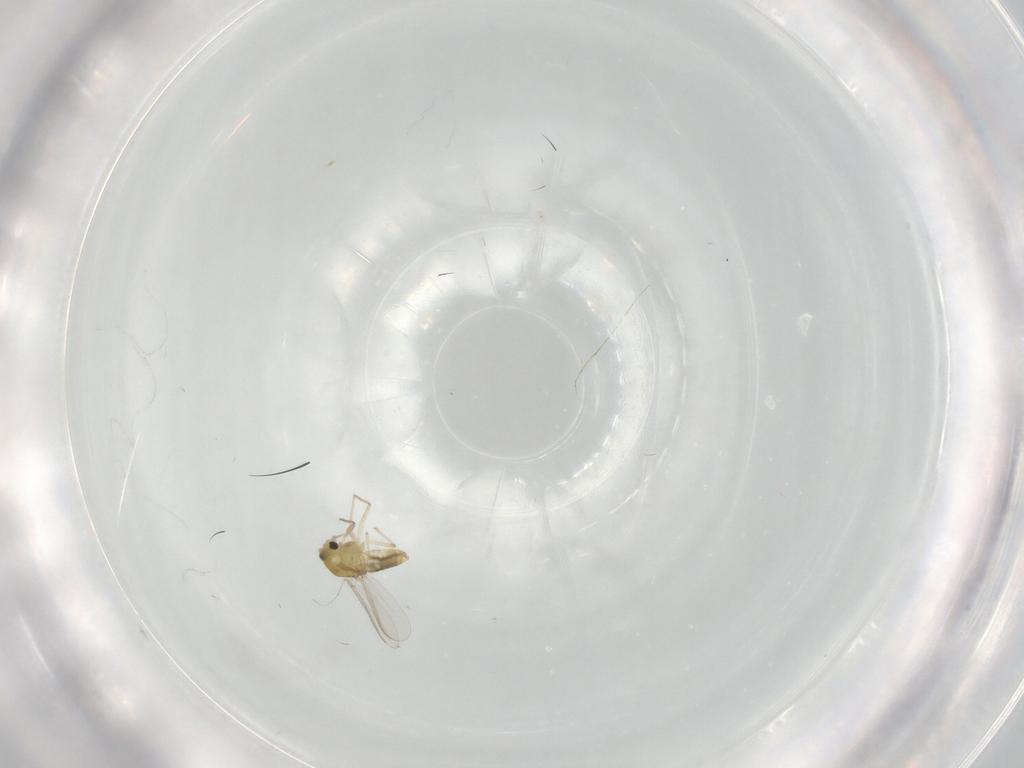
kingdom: Animalia
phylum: Arthropoda
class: Insecta
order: Diptera
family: Chironomidae
